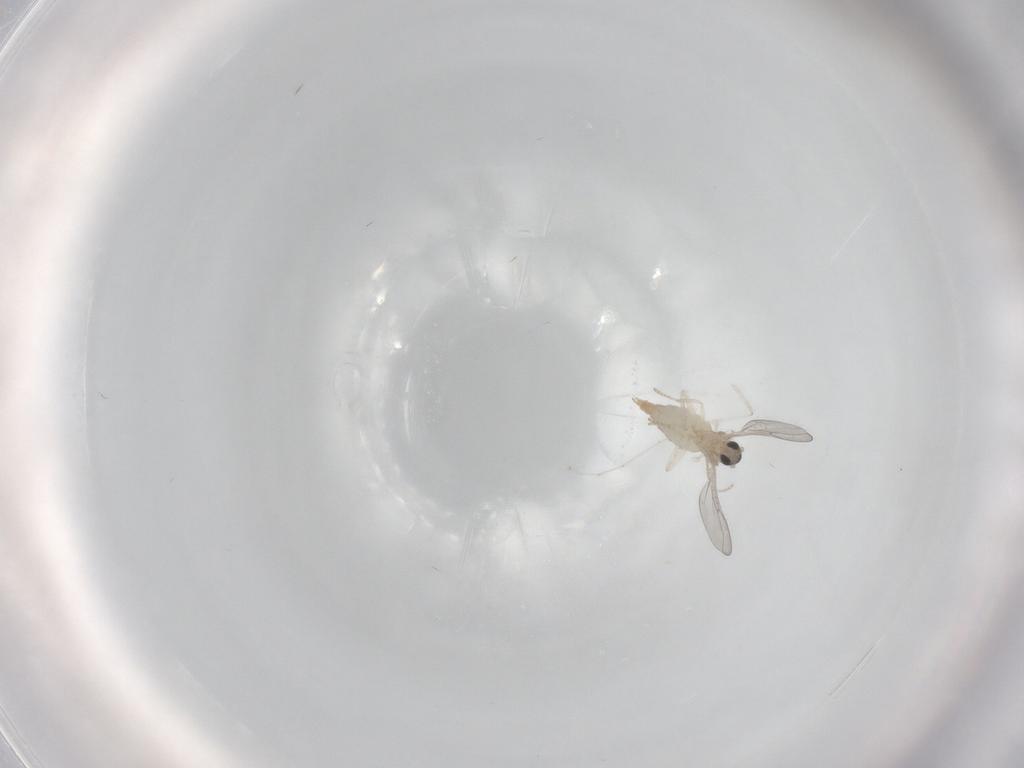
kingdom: Animalia
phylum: Arthropoda
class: Insecta
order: Diptera
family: Cecidomyiidae
